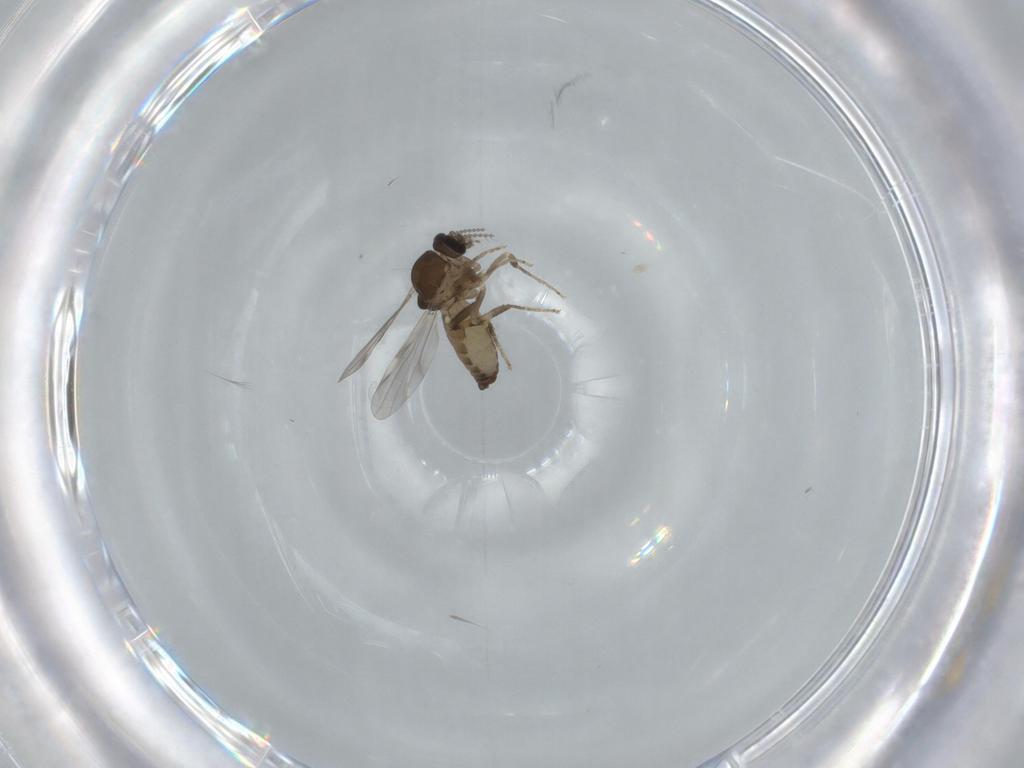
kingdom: Animalia
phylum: Arthropoda
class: Insecta
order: Diptera
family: Ceratopogonidae
